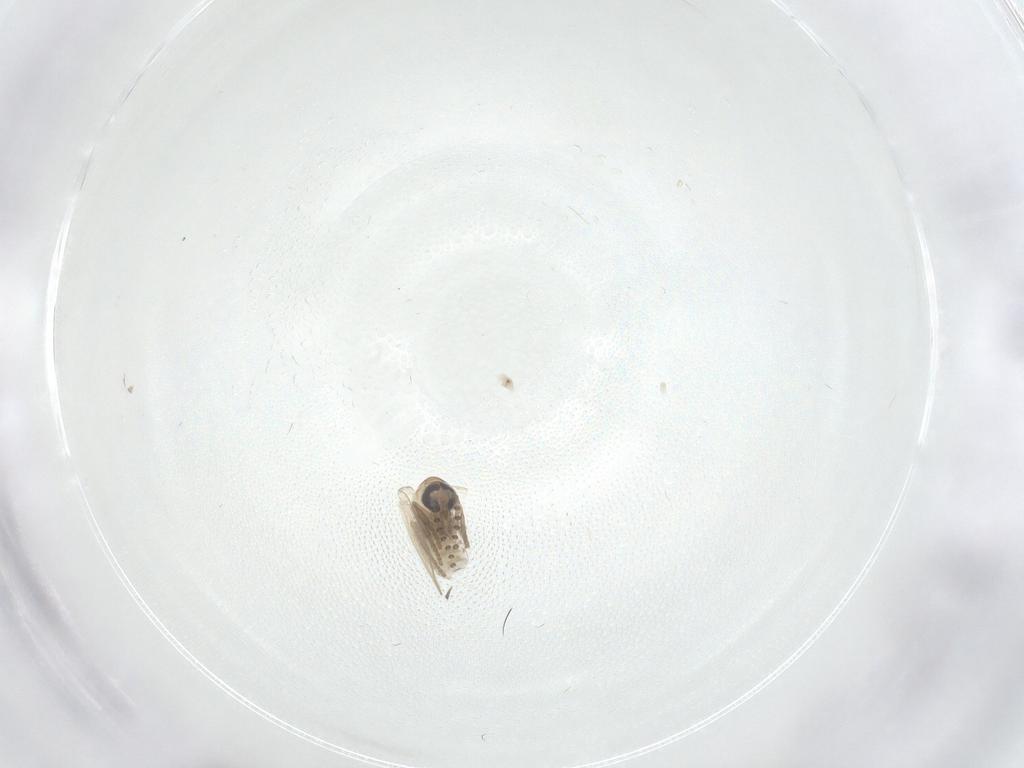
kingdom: Animalia
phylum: Arthropoda
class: Insecta
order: Diptera
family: Psychodidae
